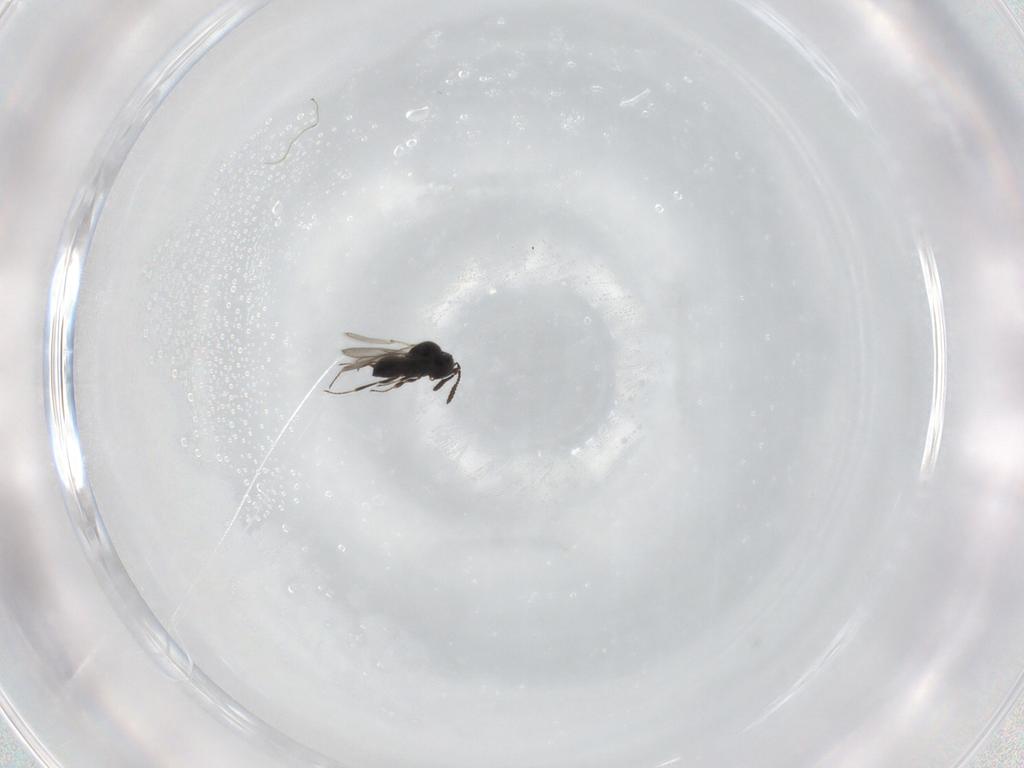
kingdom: Animalia
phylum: Arthropoda
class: Insecta
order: Hymenoptera
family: Scelionidae
